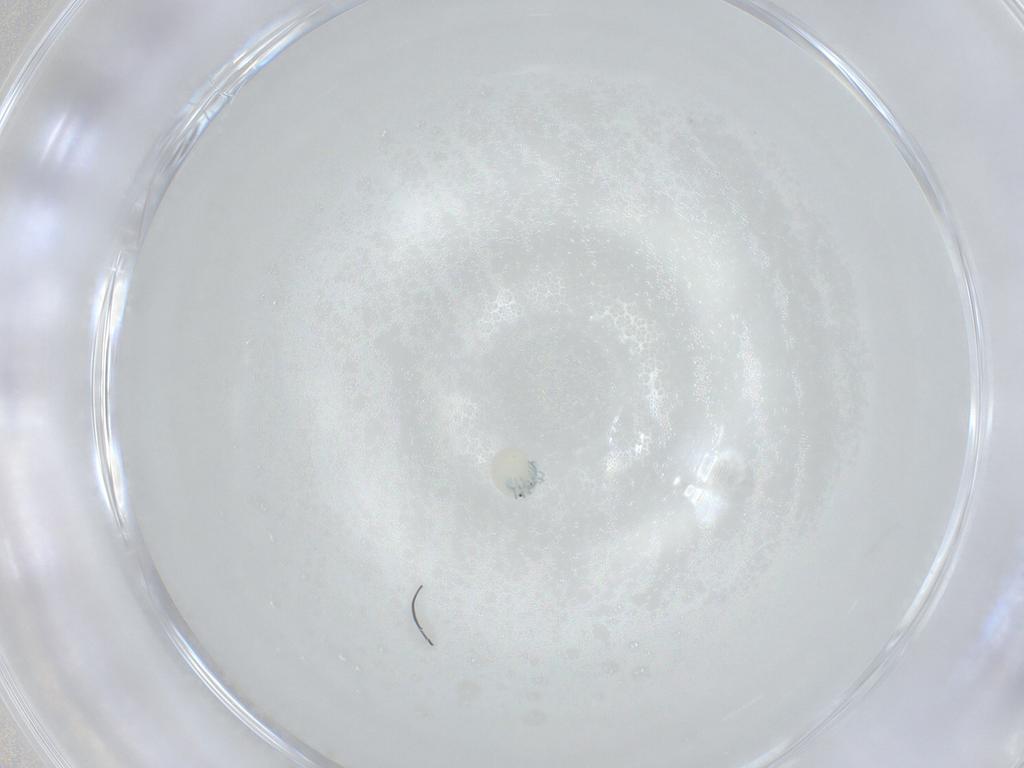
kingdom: Animalia
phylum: Arthropoda
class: Arachnida
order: Trombidiformes
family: Arrenuridae
